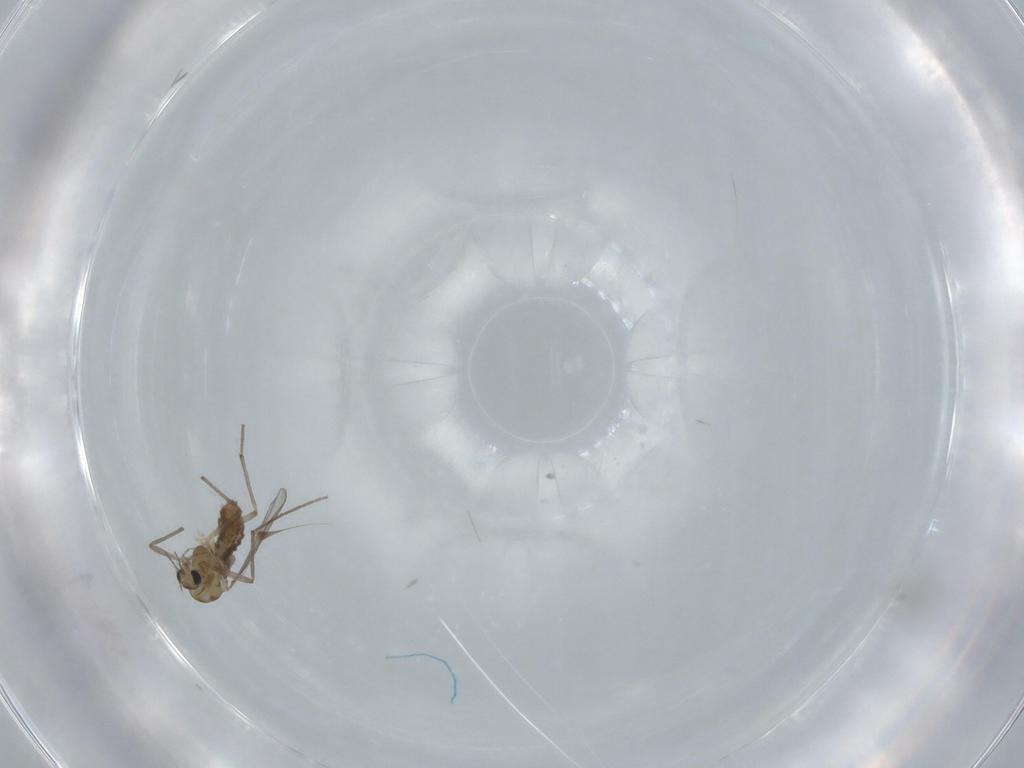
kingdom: Animalia
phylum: Arthropoda
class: Insecta
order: Diptera
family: Chironomidae
